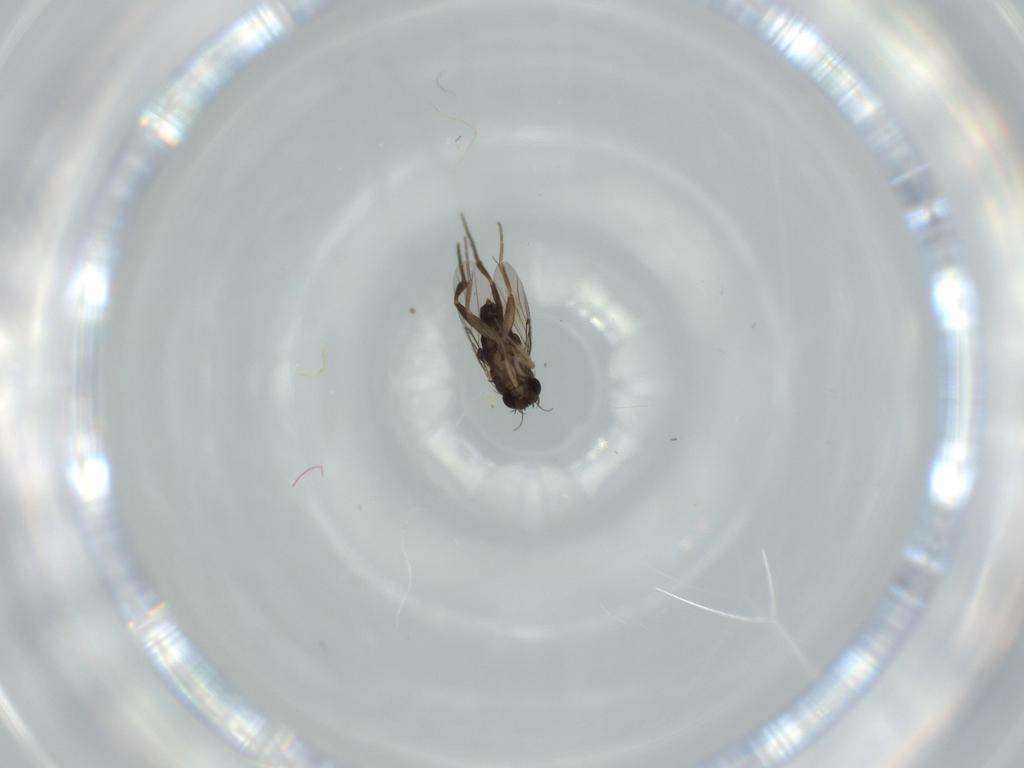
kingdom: Animalia
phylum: Arthropoda
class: Insecta
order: Diptera
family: Phoridae
